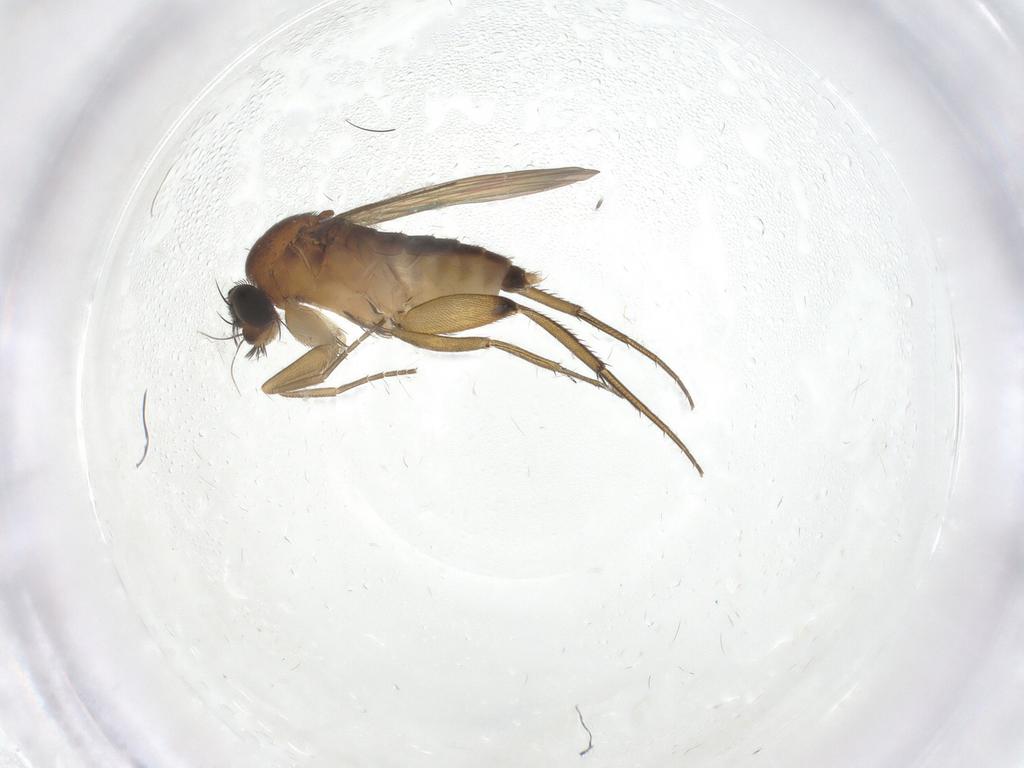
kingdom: Animalia
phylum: Arthropoda
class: Insecta
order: Diptera
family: Phoridae
